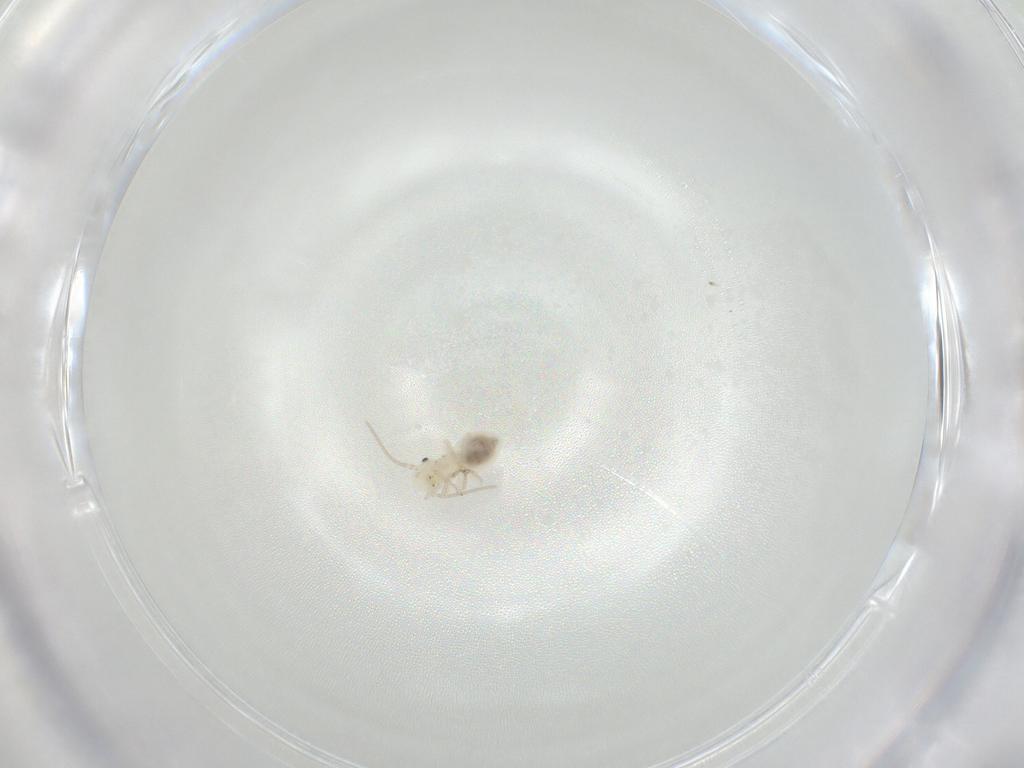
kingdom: Animalia
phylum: Arthropoda
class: Insecta
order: Psocodea
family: Caeciliusidae
